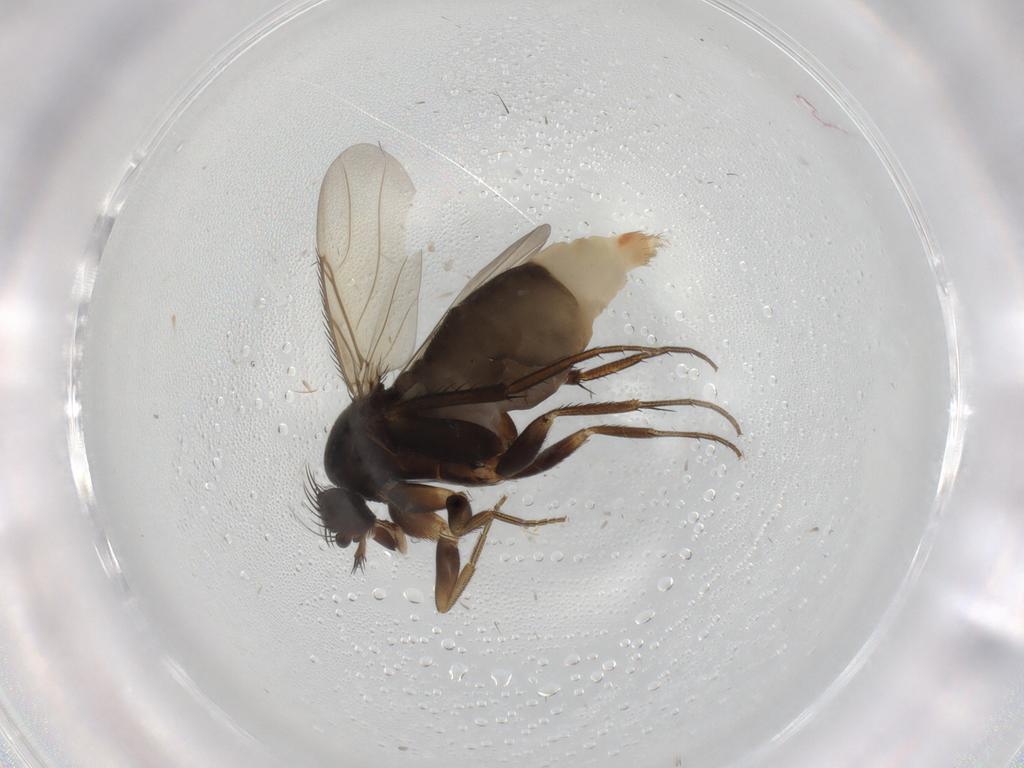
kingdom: Animalia
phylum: Arthropoda
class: Insecta
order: Diptera
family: Phoridae
